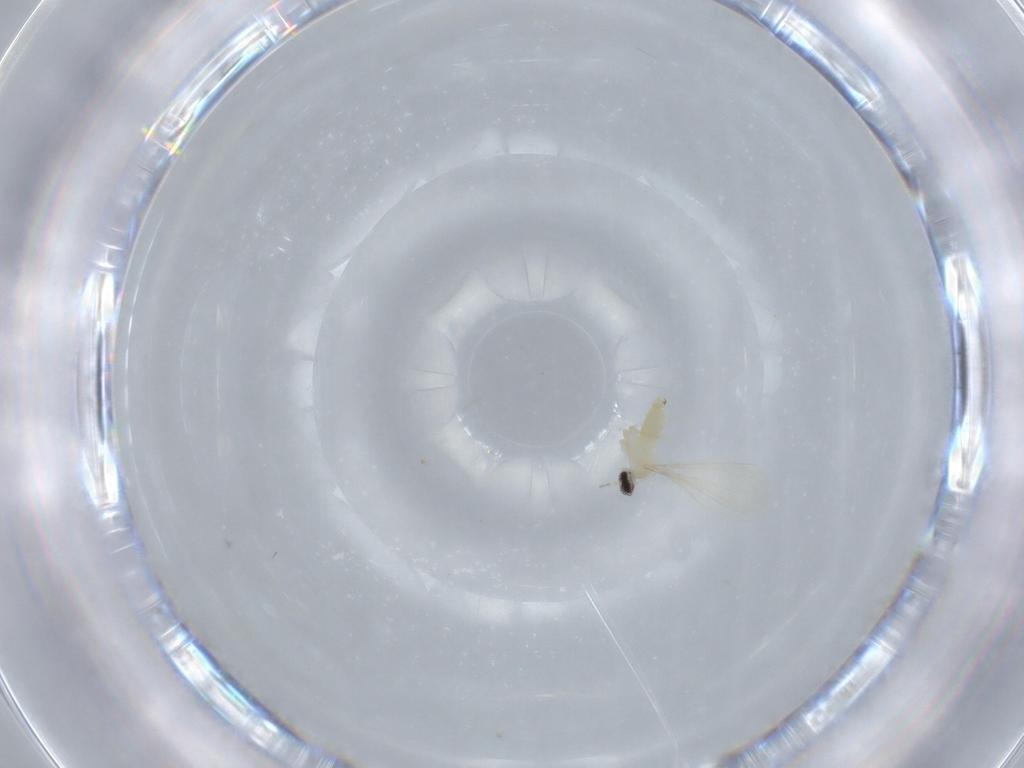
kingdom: Animalia
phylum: Arthropoda
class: Insecta
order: Diptera
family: Cecidomyiidae
